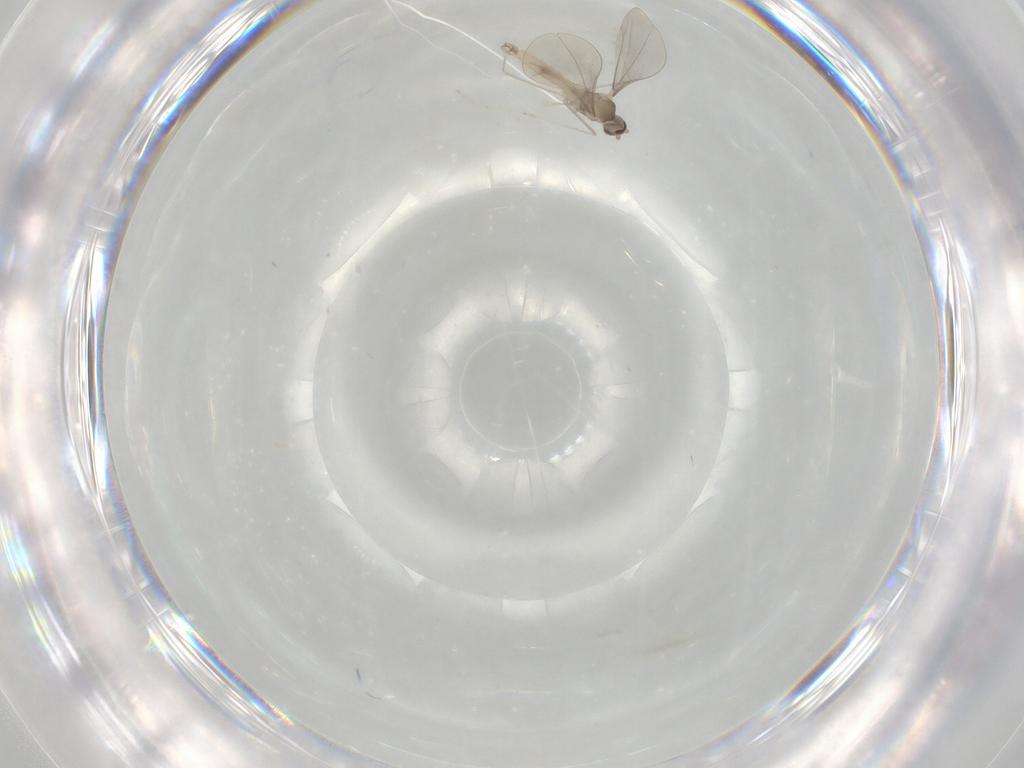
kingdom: Animalia
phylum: Arthropoda
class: Insecta
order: Diptera
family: Cecidomyiidae
